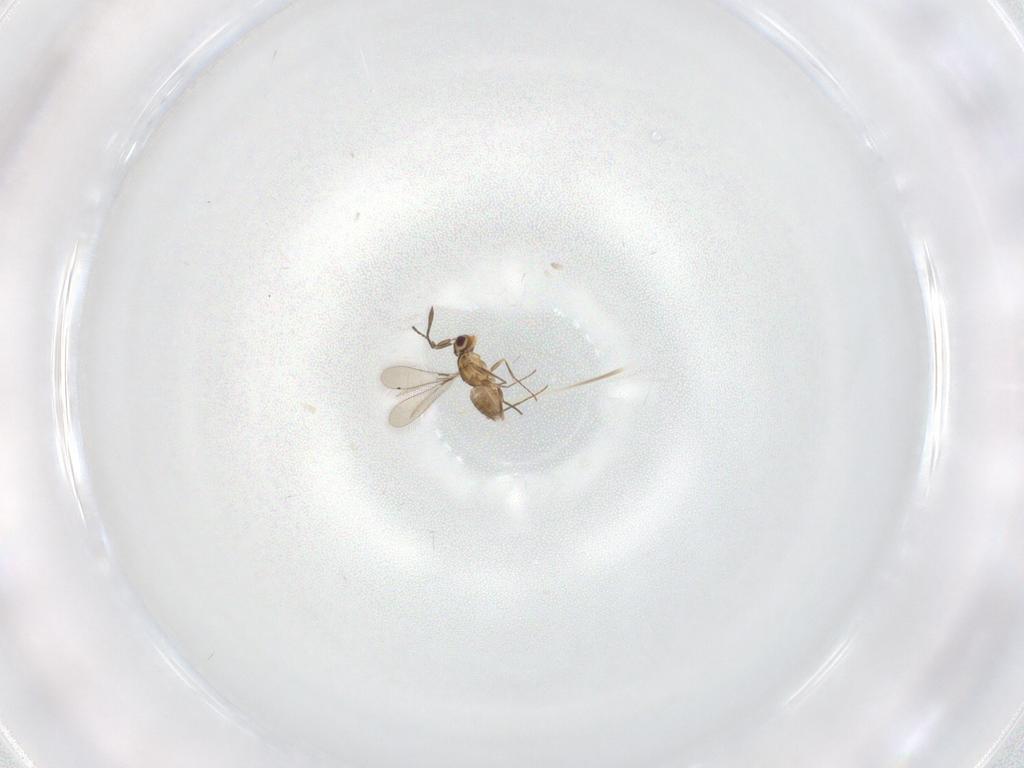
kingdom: Animalia
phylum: Arthropoda
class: Insecta
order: Hymenoptera
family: Mymaridae
